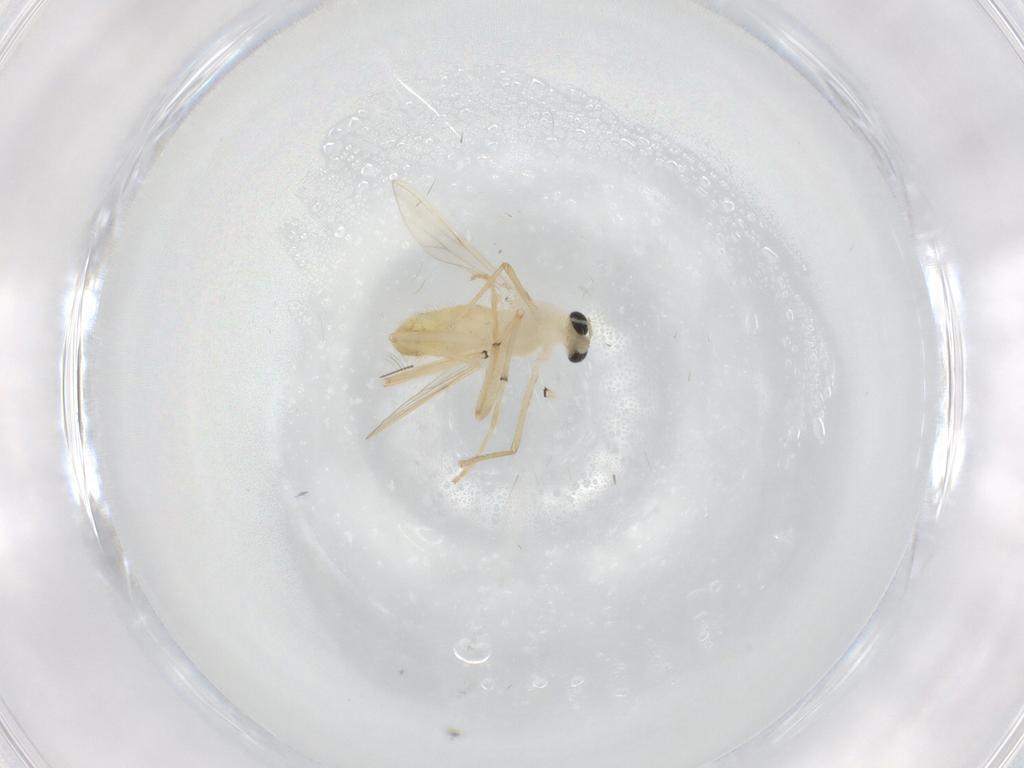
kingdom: Animalia
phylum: Arthropoda
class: Insecta
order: Diptera
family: Chironomidae
